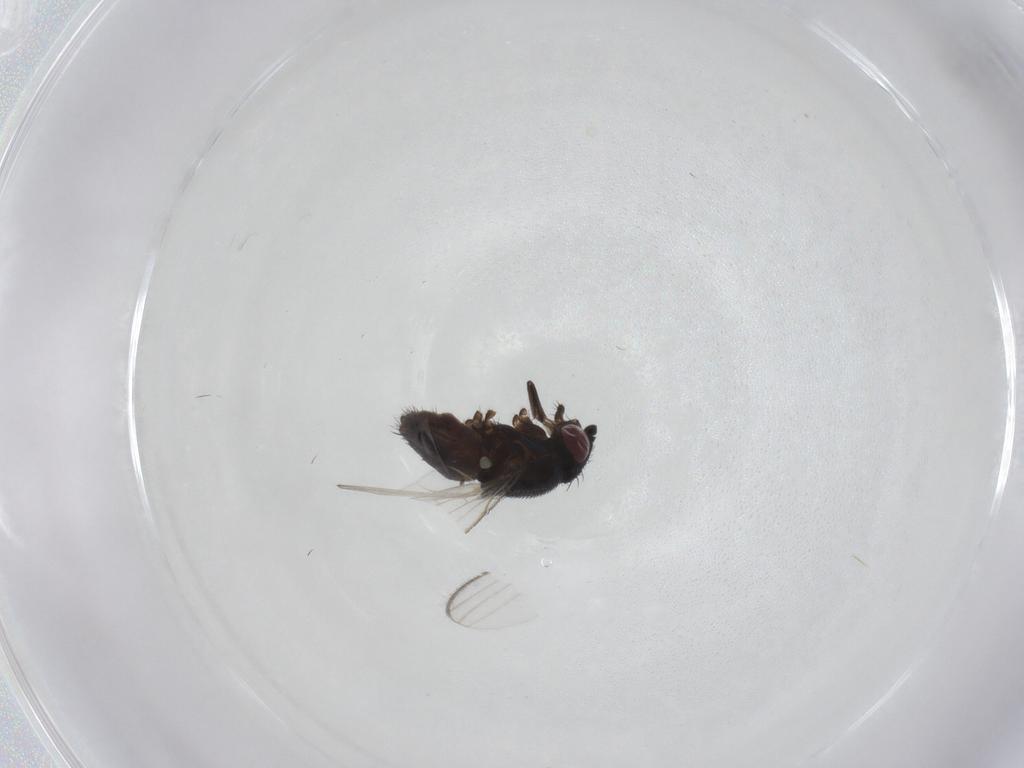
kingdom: Animalia
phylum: Arthropoda
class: Insecta
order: Diptera
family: Milichiidae
